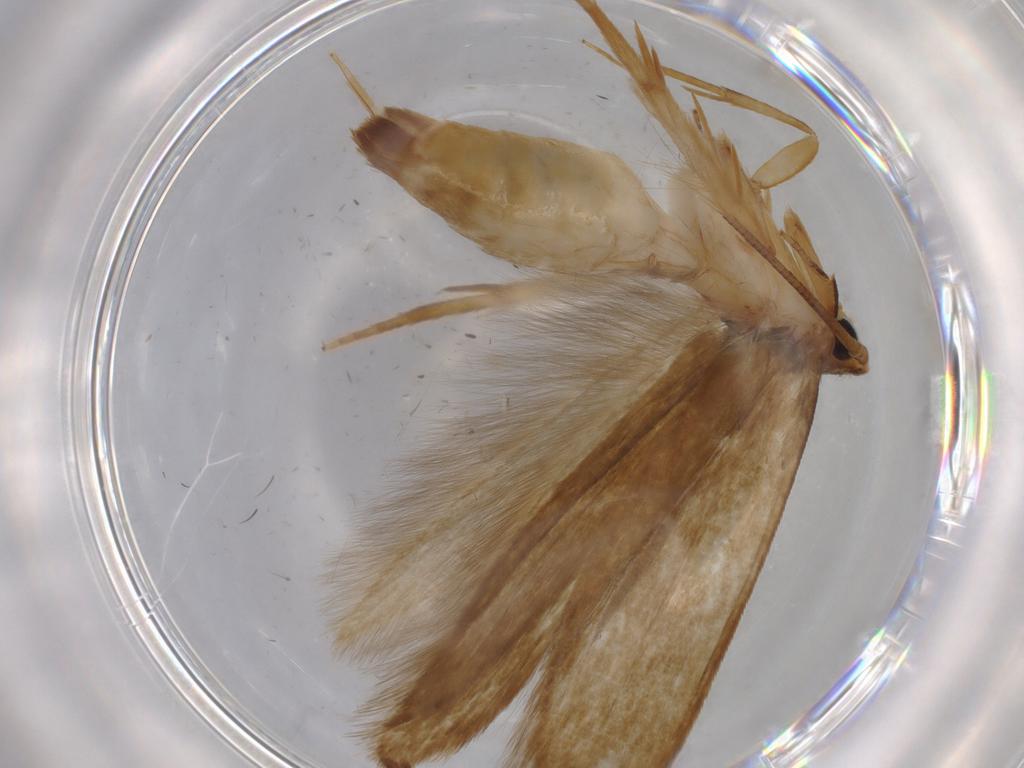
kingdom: Animalia
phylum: Arthropoda
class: Insecta
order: Lepidoptera
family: Tineidae
